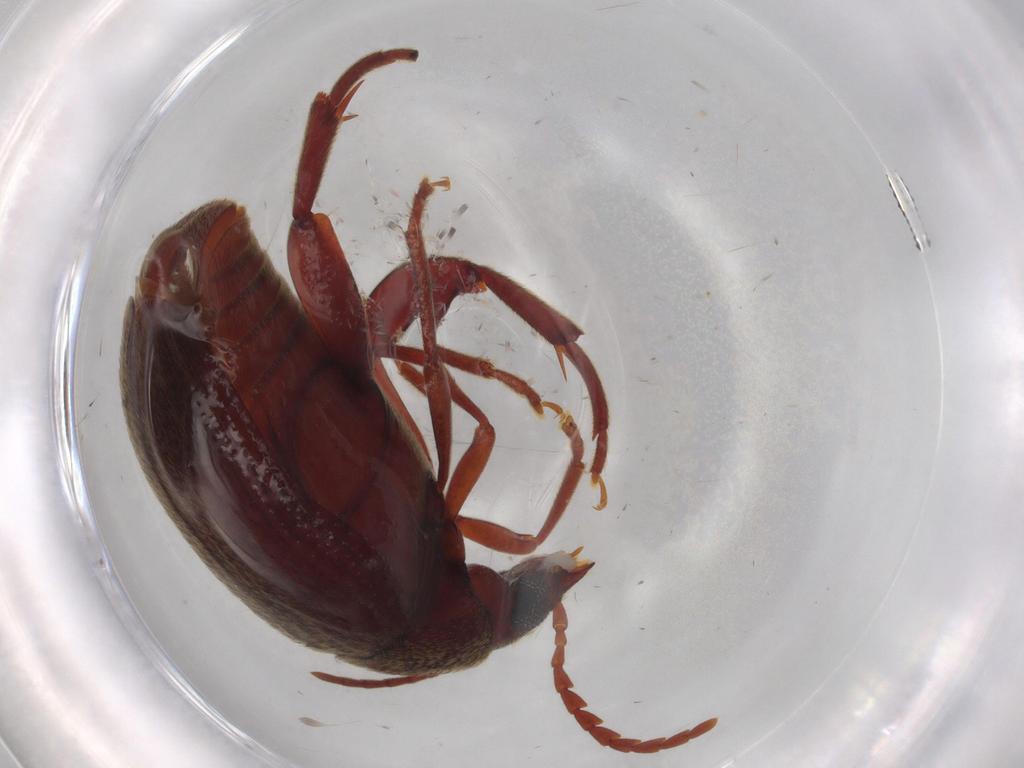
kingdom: Animalia
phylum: Arthropoda
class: Insecta
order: Coleoptera
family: Chrysomelidae
